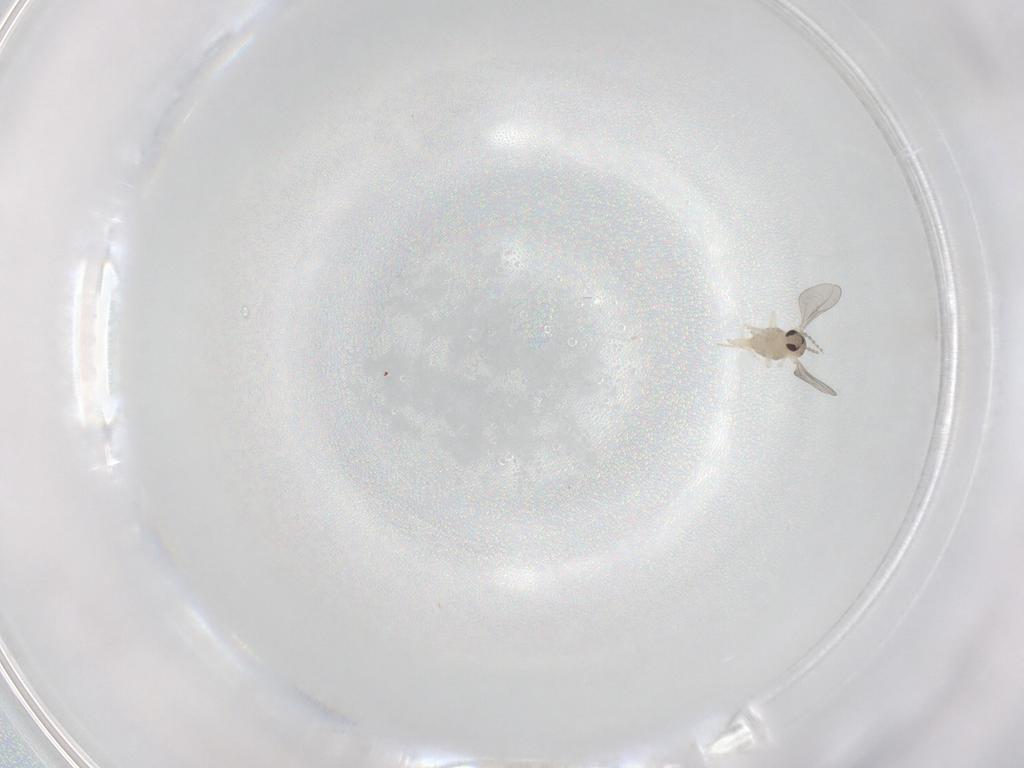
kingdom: Animalia
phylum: Arthropoda
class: Insecta
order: Diptera
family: Cecidomyiidae
